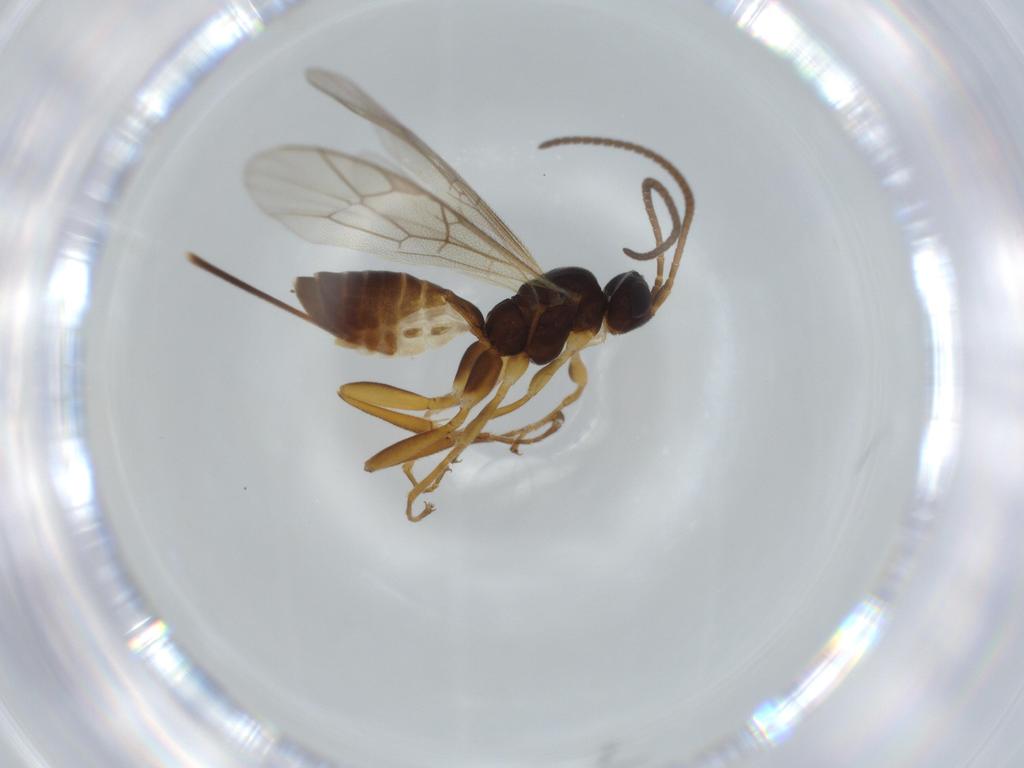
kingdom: Animalia
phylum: Arthropoda
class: Insecta
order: Hymenoptera
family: Ichneumonidae
